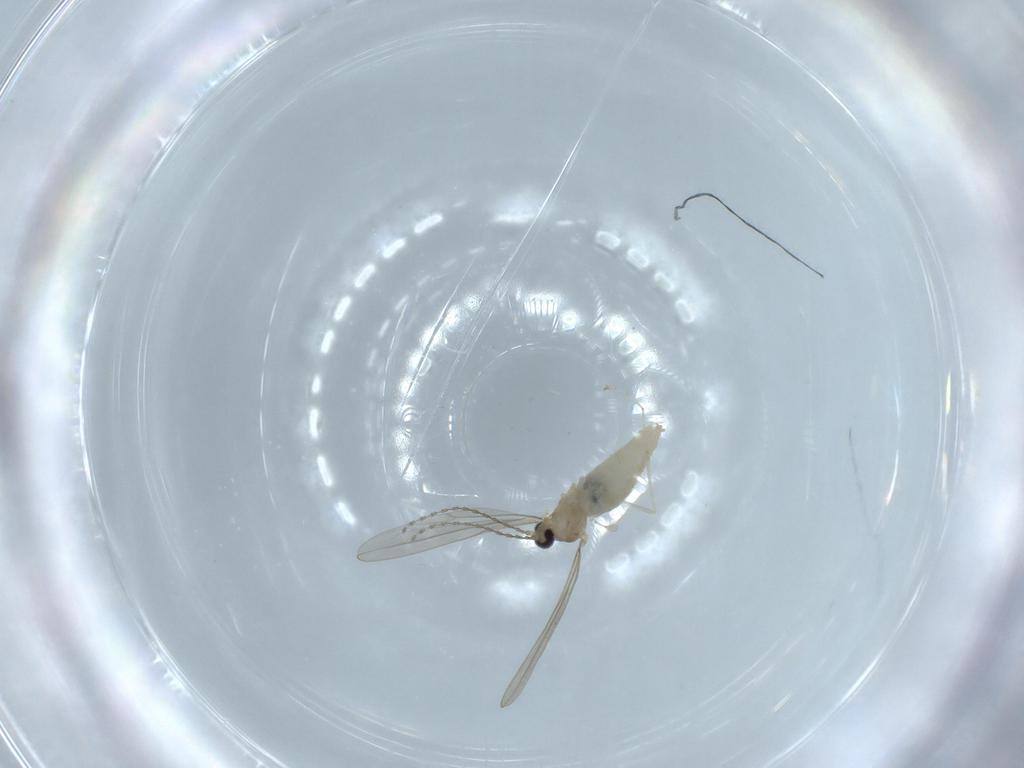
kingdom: Animalia
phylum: Arthropoda
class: Insecta
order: Diptera
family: Cecidomyiidae
